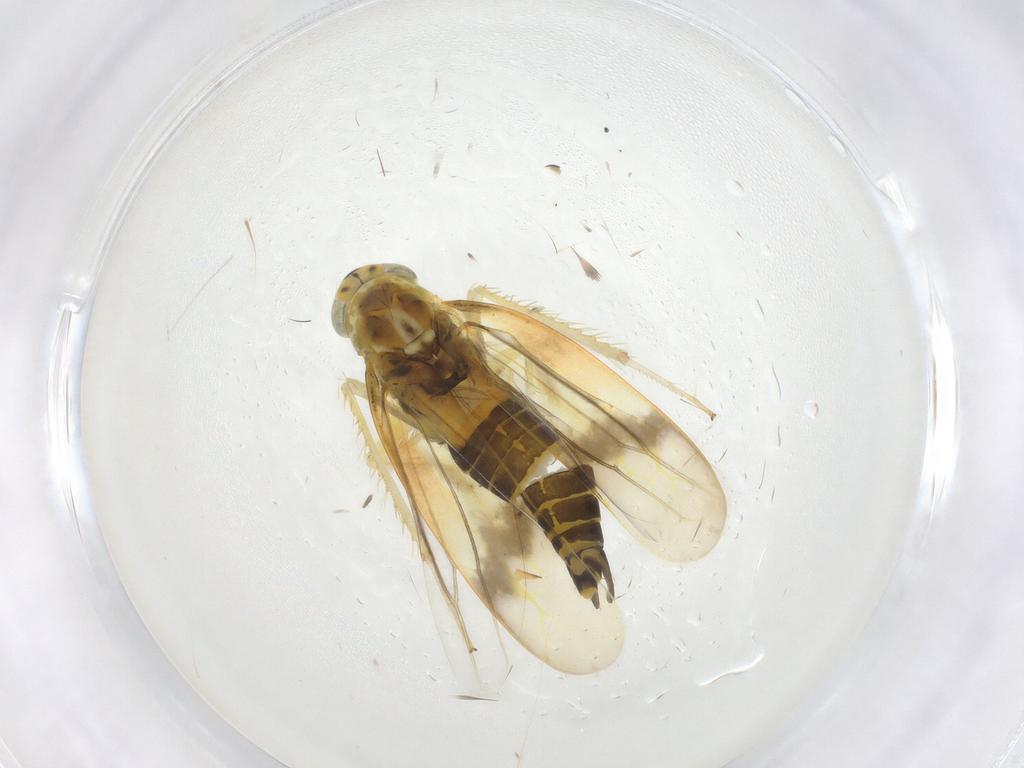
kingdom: Animalia
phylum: Arthropoda
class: Insecta
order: Hemiptera
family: Cicadellidae
